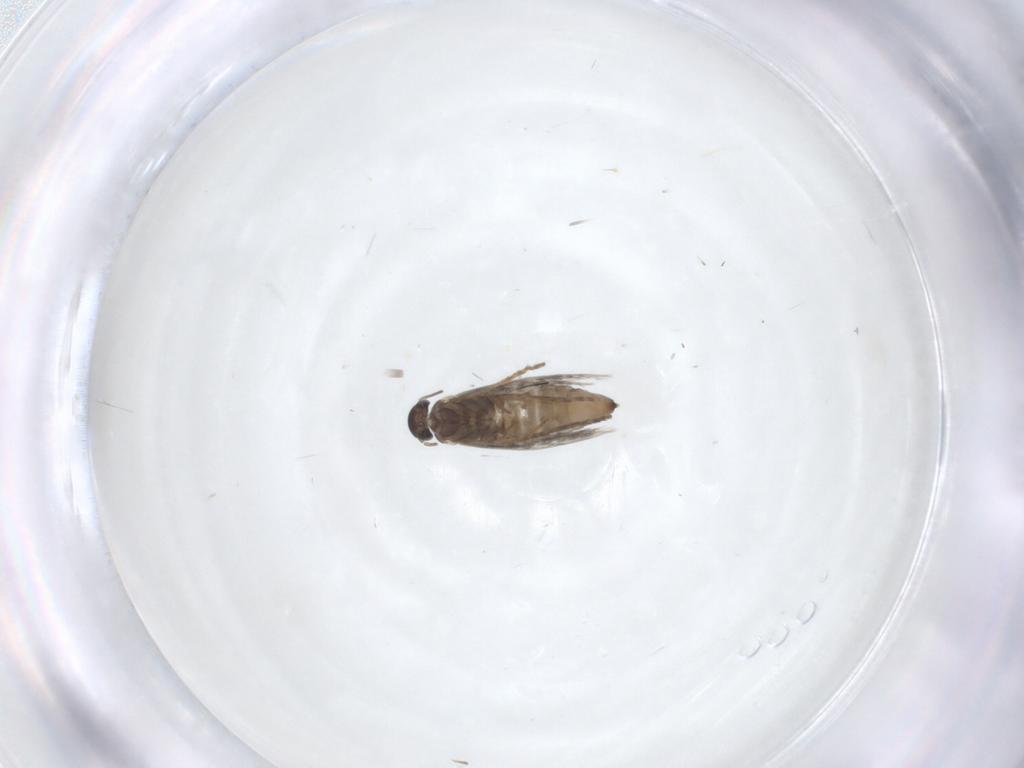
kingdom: Animalia
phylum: Arthropoda
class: Insecta
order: Lepidoptera
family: Heliozelidae
